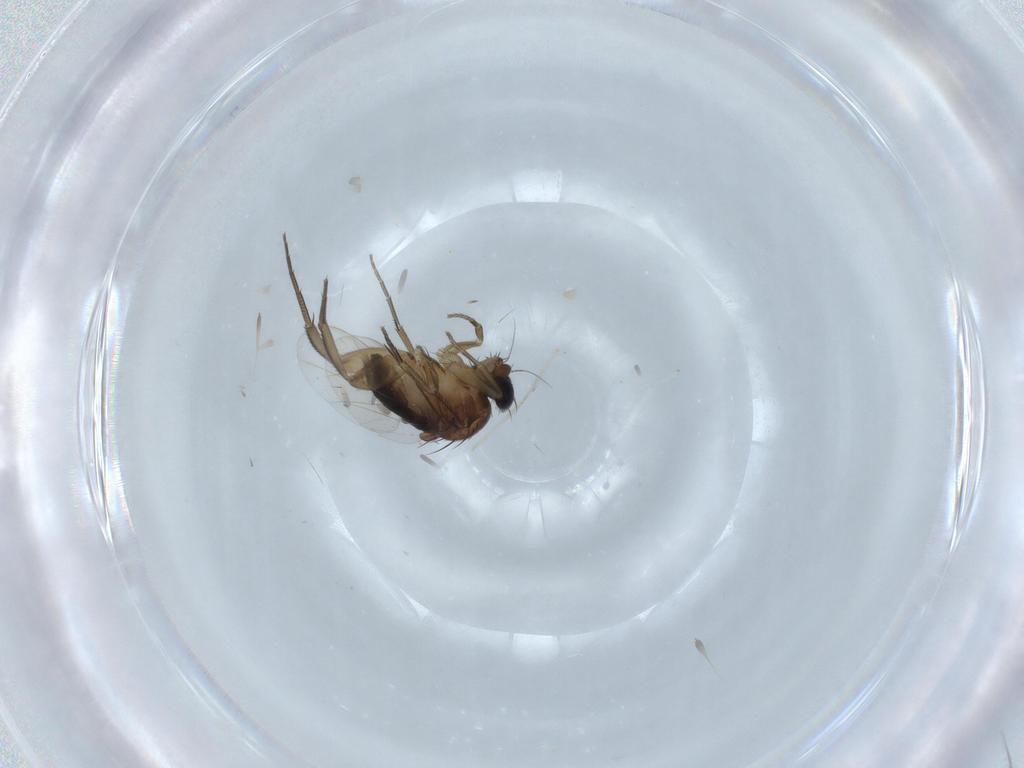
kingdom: Animalia
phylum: Arthropoda
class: Insecta
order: Diptera
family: Phoridae
